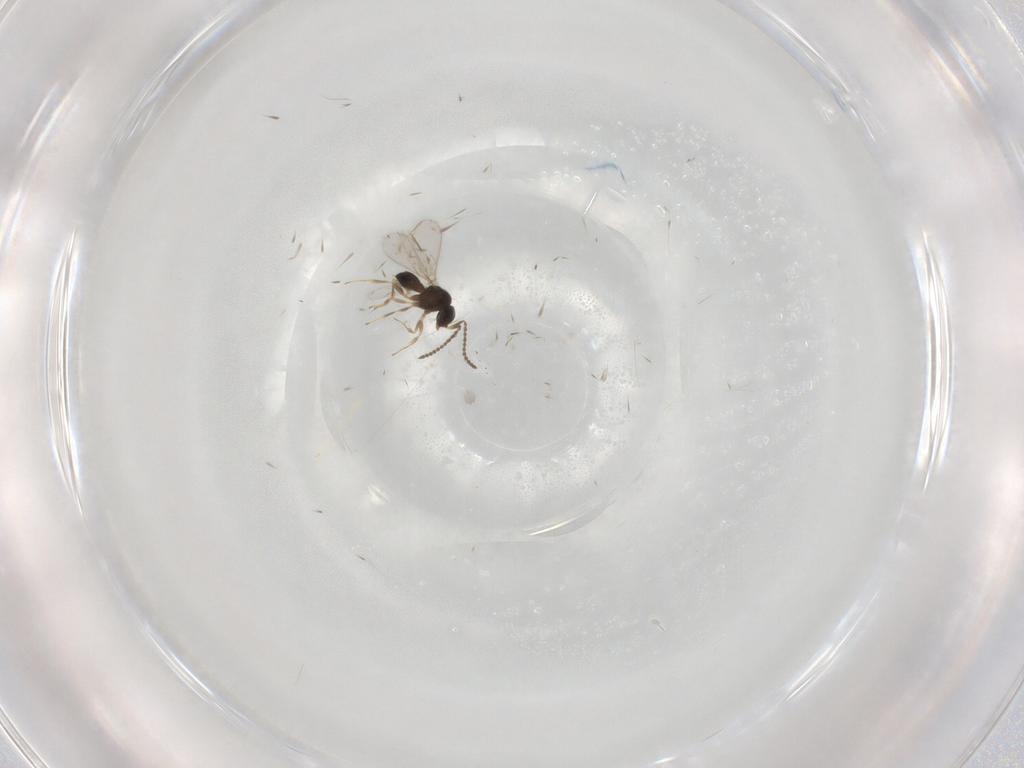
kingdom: Animalia
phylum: Arthropoda
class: Insecta
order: Hymenoptera
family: Scelionidae
